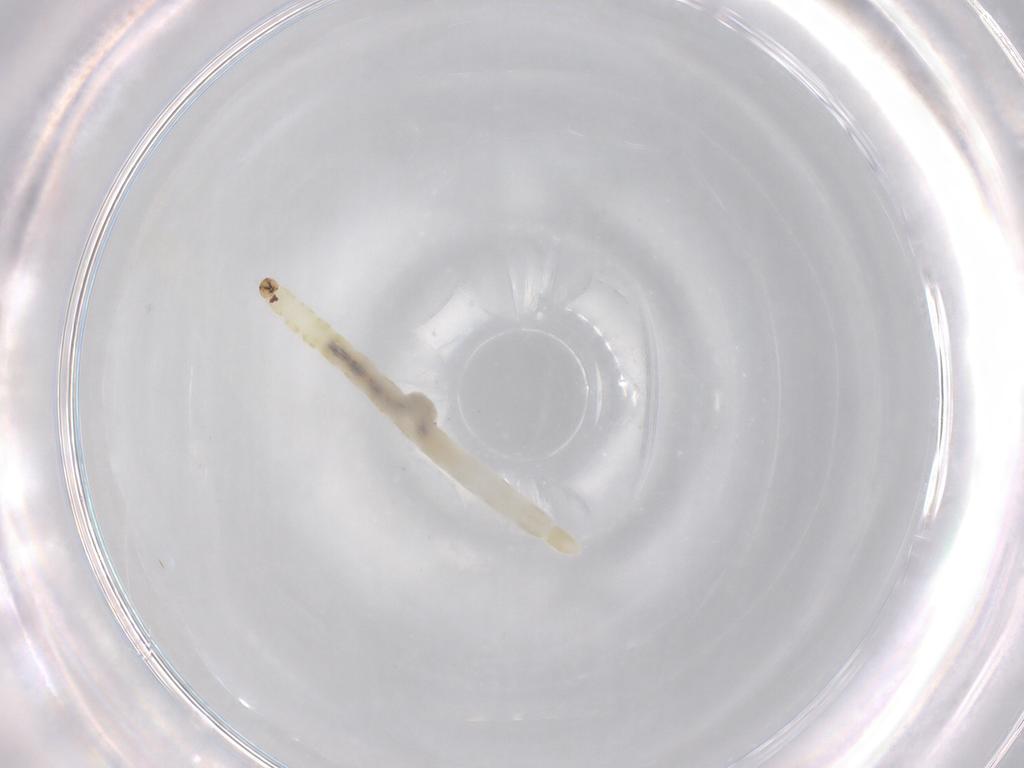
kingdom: Animalia
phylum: Arthropoda
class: Insecta
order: Diptera
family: Chironomidae
